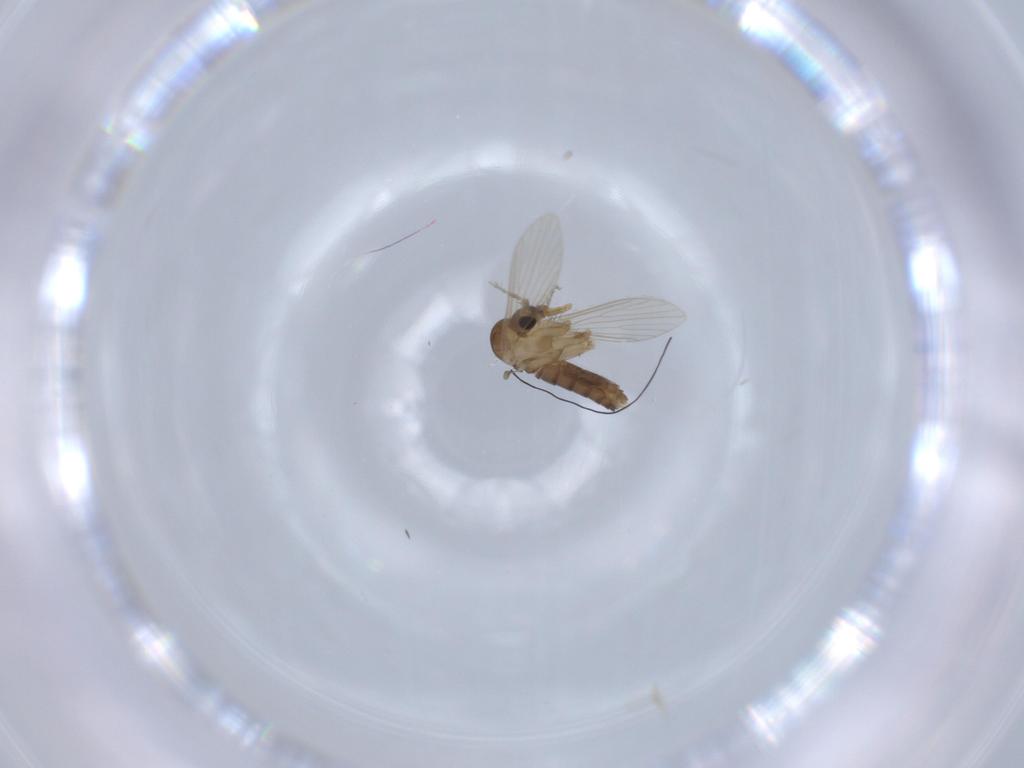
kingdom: Animalia
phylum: Arthropoda
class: Insecta
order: Diptera
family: Psychodidae
